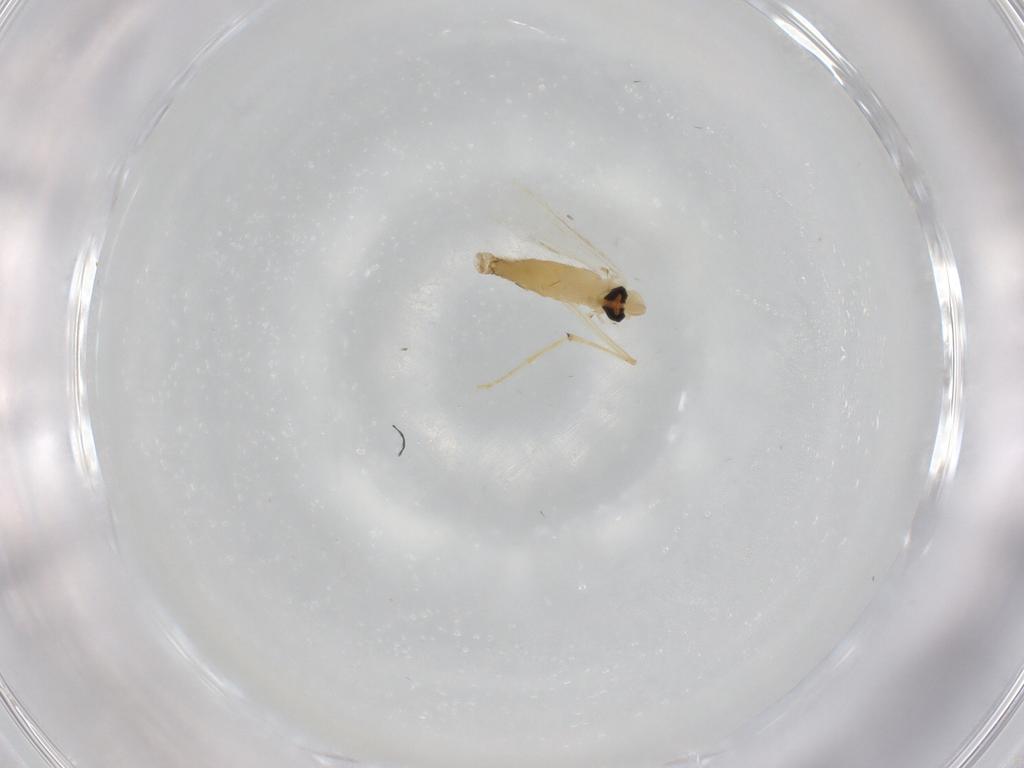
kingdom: Animalia
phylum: Arthropoda
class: Insecta
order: Diptera
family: Chironomidae
